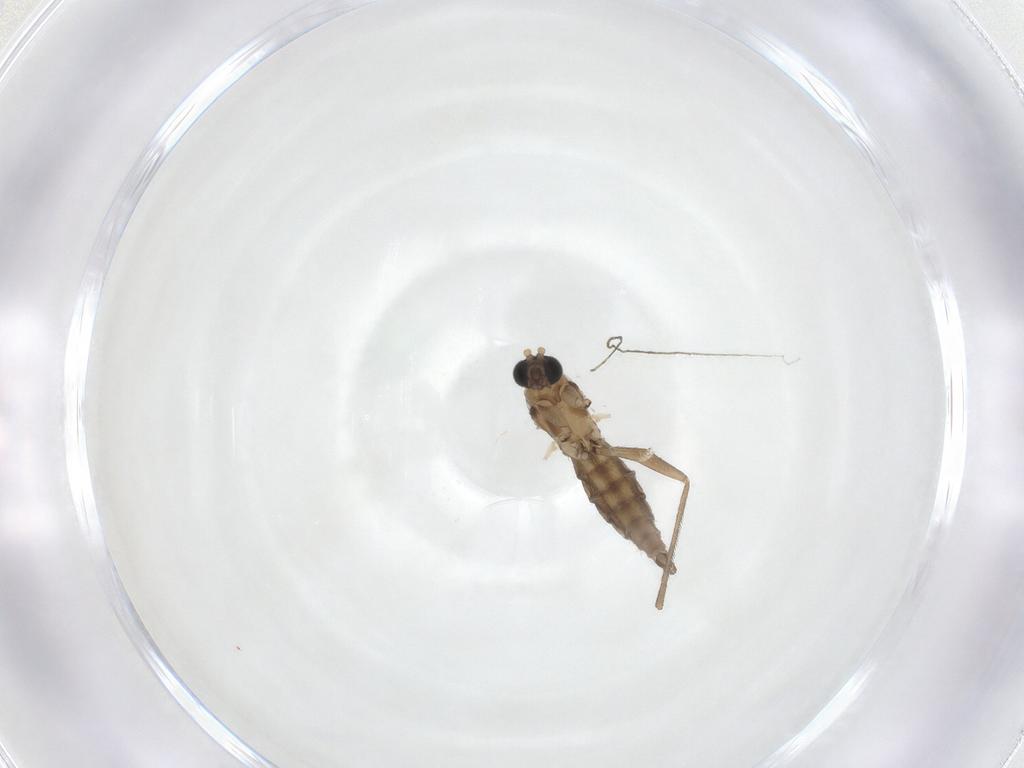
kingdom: Animalia
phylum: Arthropoda
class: Insecta
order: Diptera
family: Sciaridae
